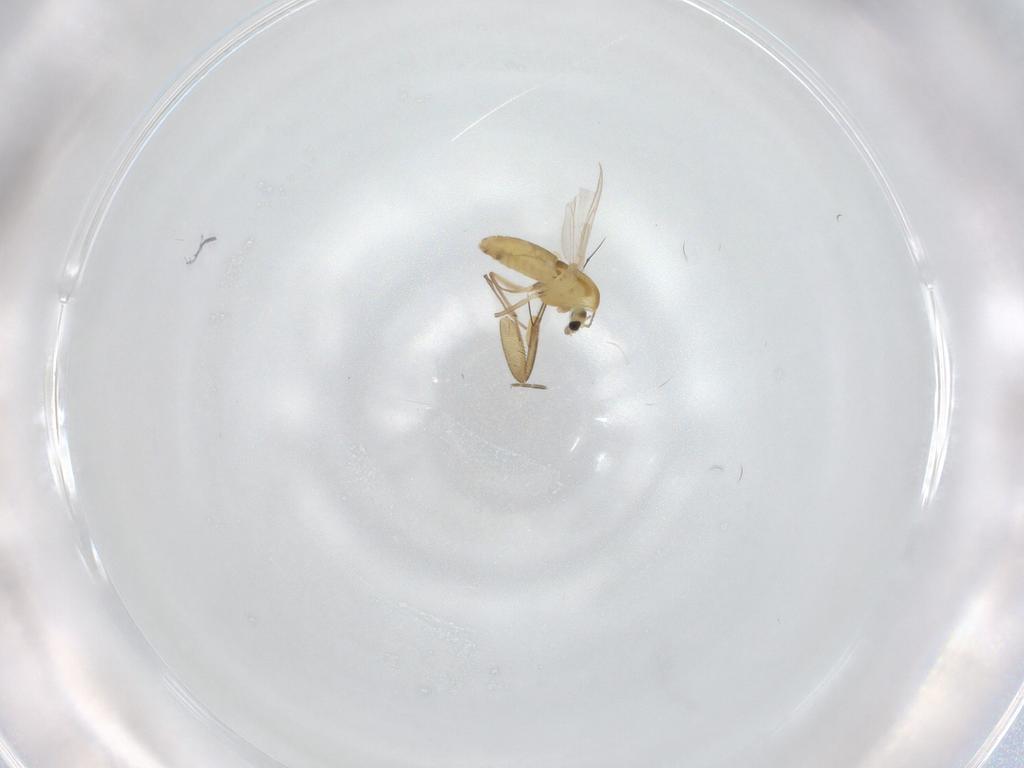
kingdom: Animalia
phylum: Arthropoda
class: Insecta
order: Diptera
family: Chironomidae
